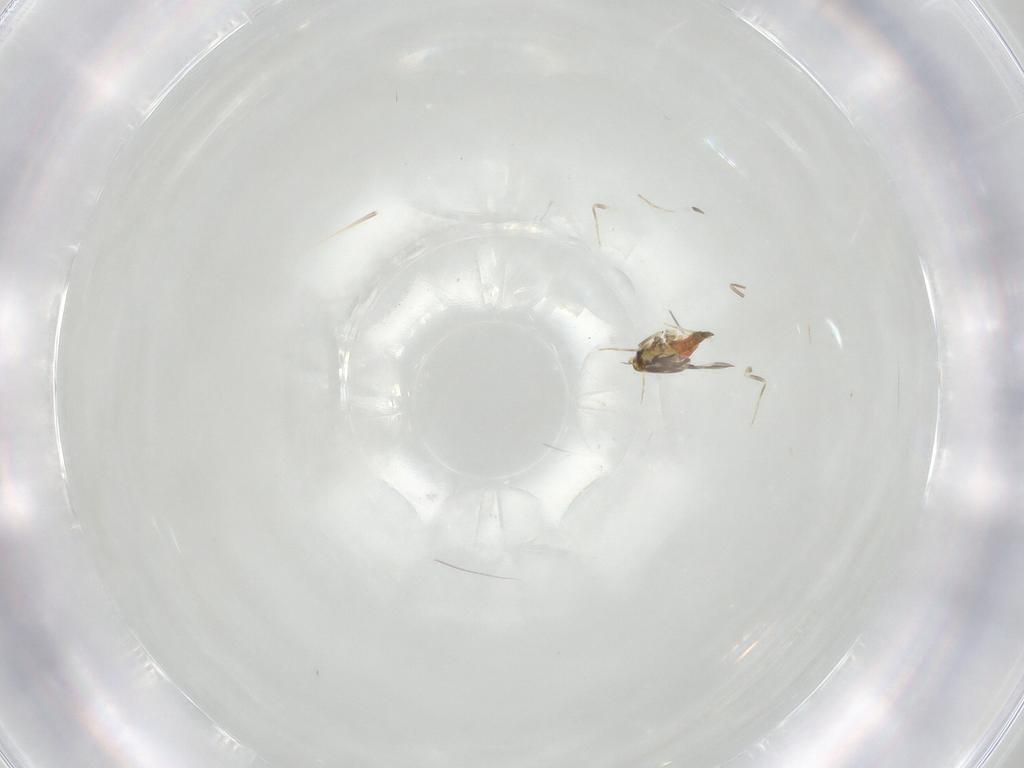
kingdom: Animalia
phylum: Arthropoda
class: Insecta
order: Hemiptera
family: Aleyrodidae
